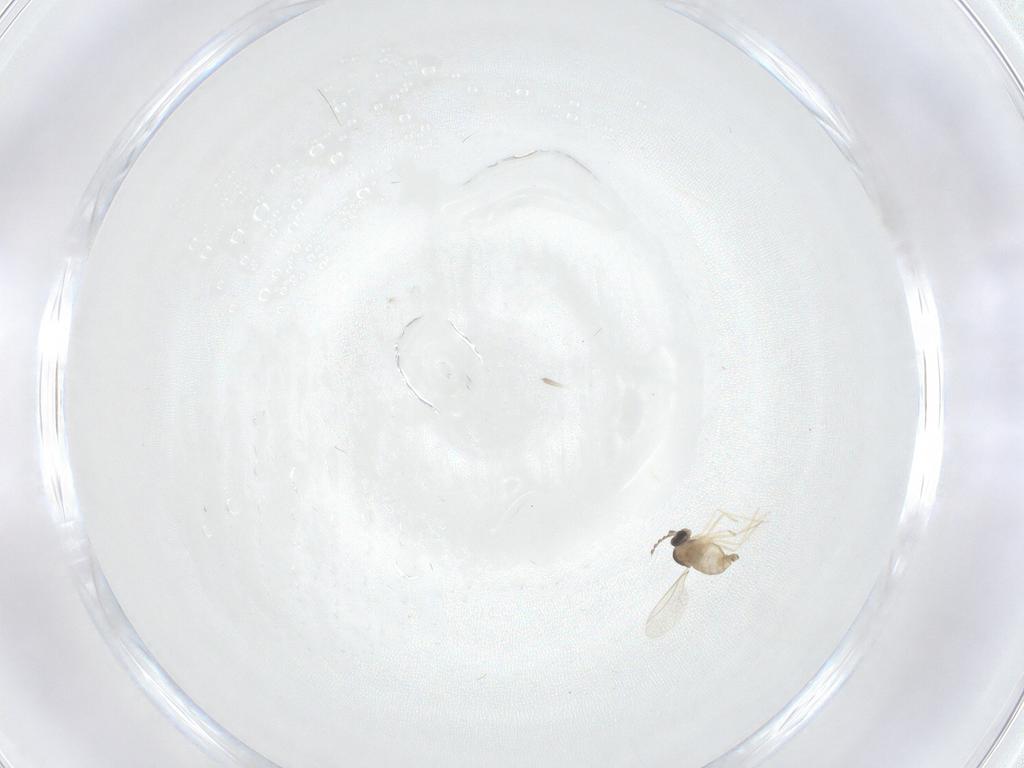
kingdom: Animalia
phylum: Arthropoda
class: Insecta
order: Diptera
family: Cecidomyiidae
